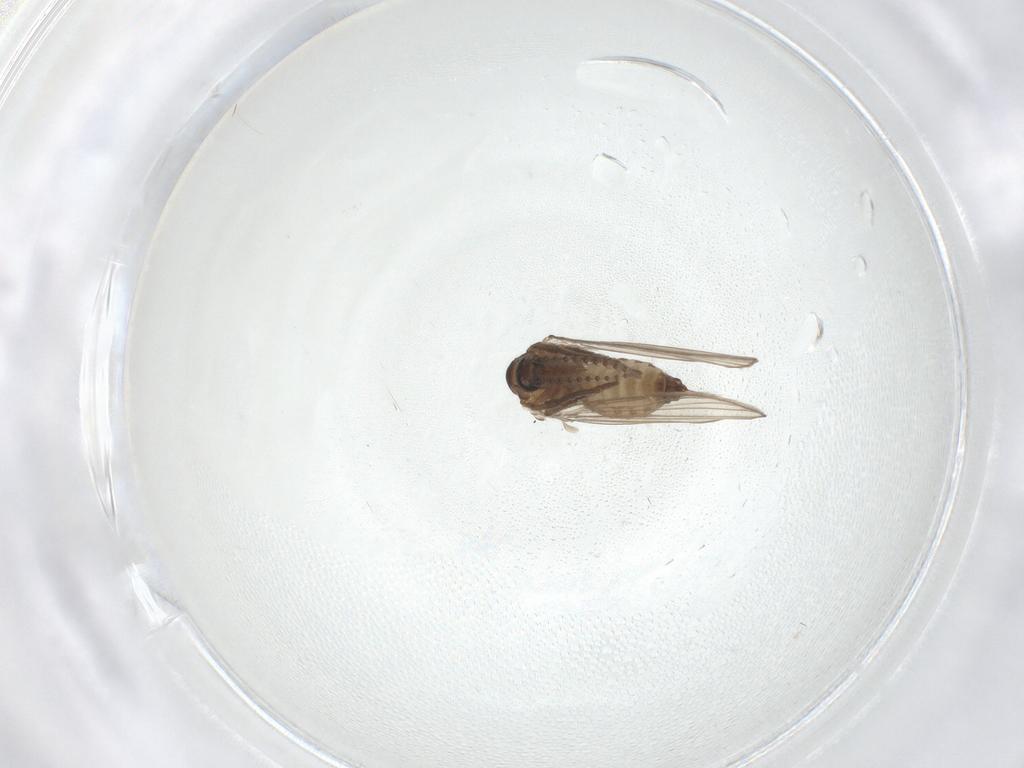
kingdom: Animalia
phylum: Arthropoda
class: Insecta
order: Diptera
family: Psychodidae
